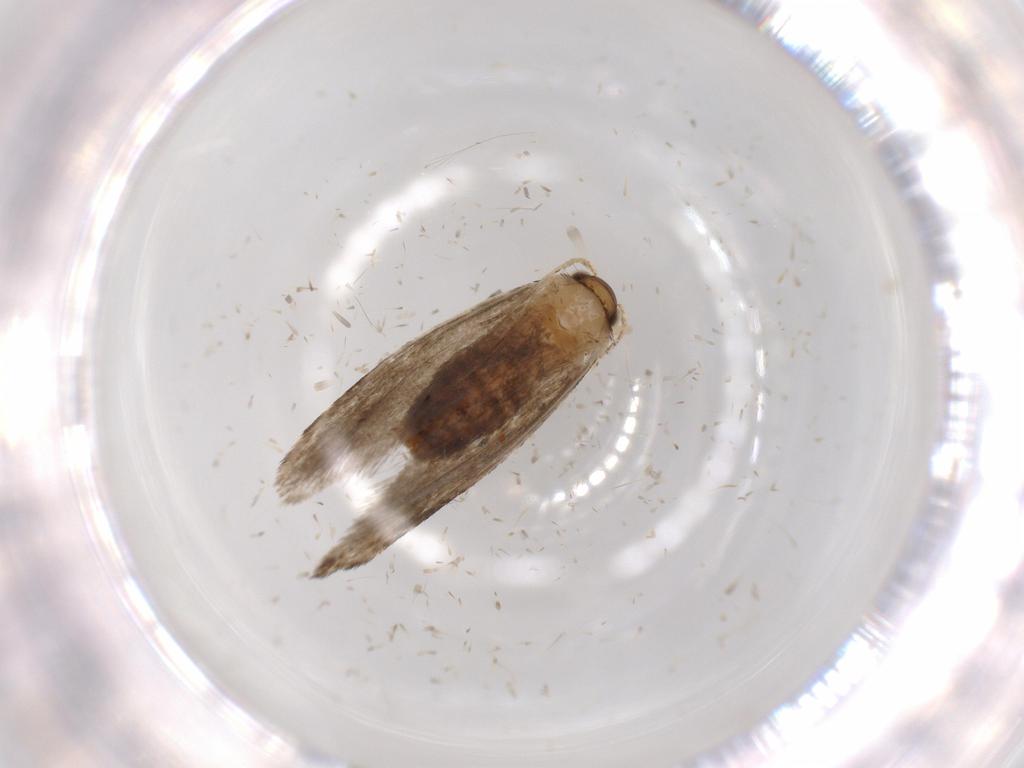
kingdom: Animalia
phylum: Arthropoda
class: Insecta
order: Lepidoptera
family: Tineidae
